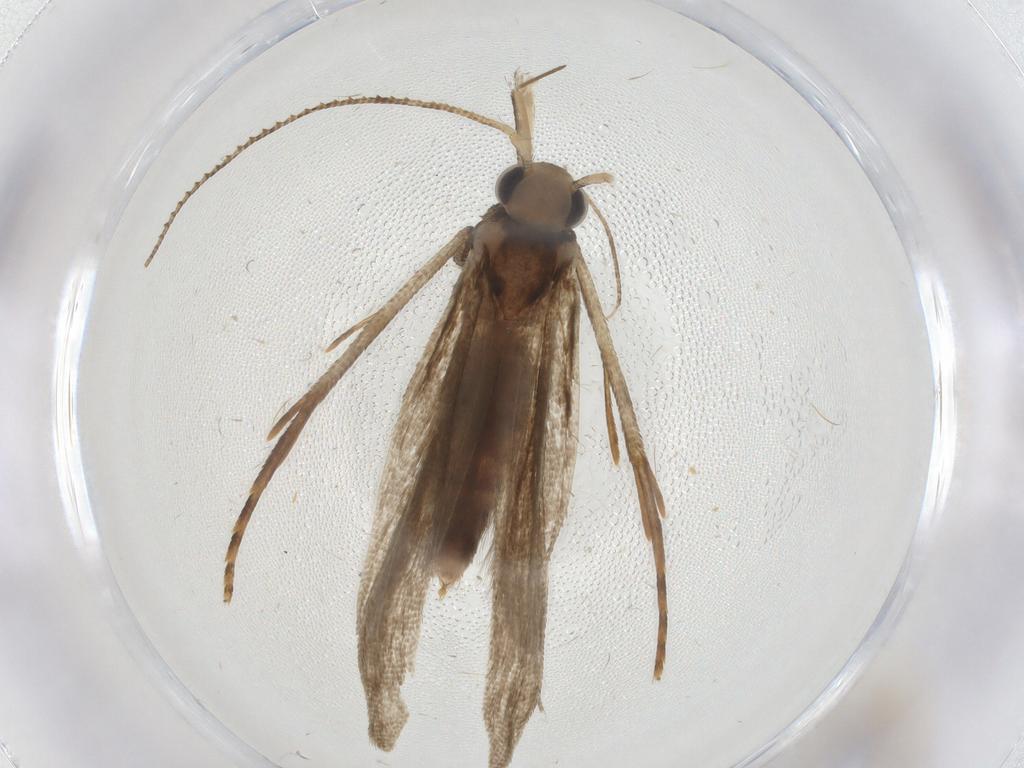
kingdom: Animalia
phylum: Arthropoda
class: Insecta
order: Lepidoptera
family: Gelechiidae
